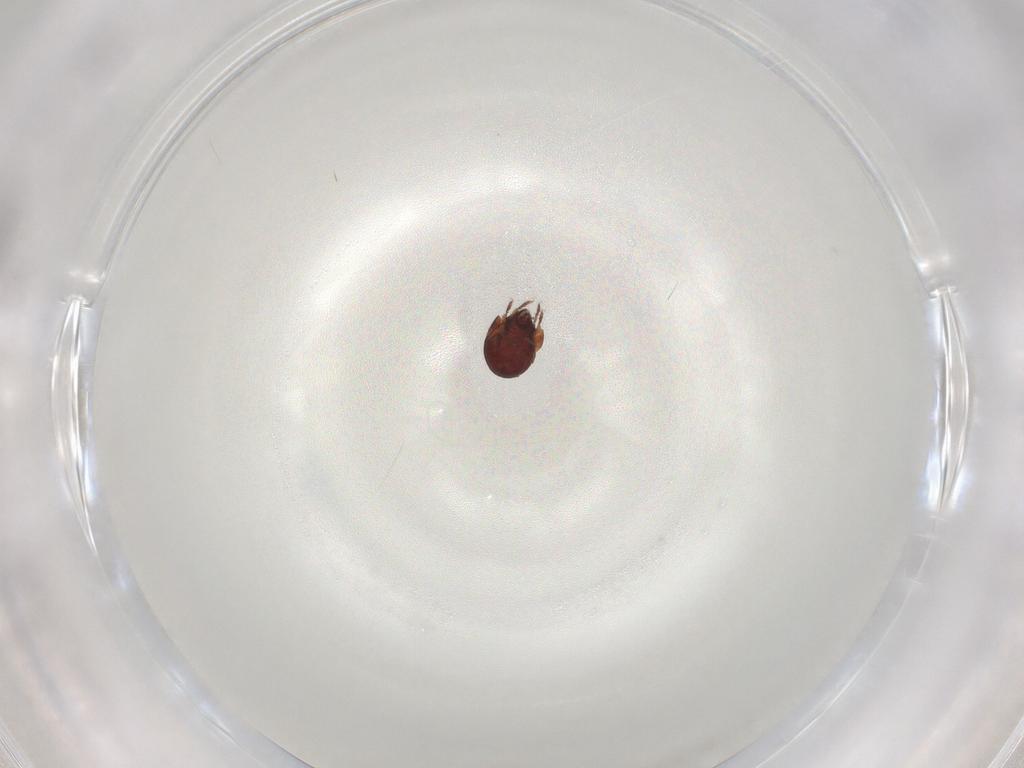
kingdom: Animalia
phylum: Arthropoda
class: Arachnida
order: Sarcoptiformes
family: Humerobatidae
